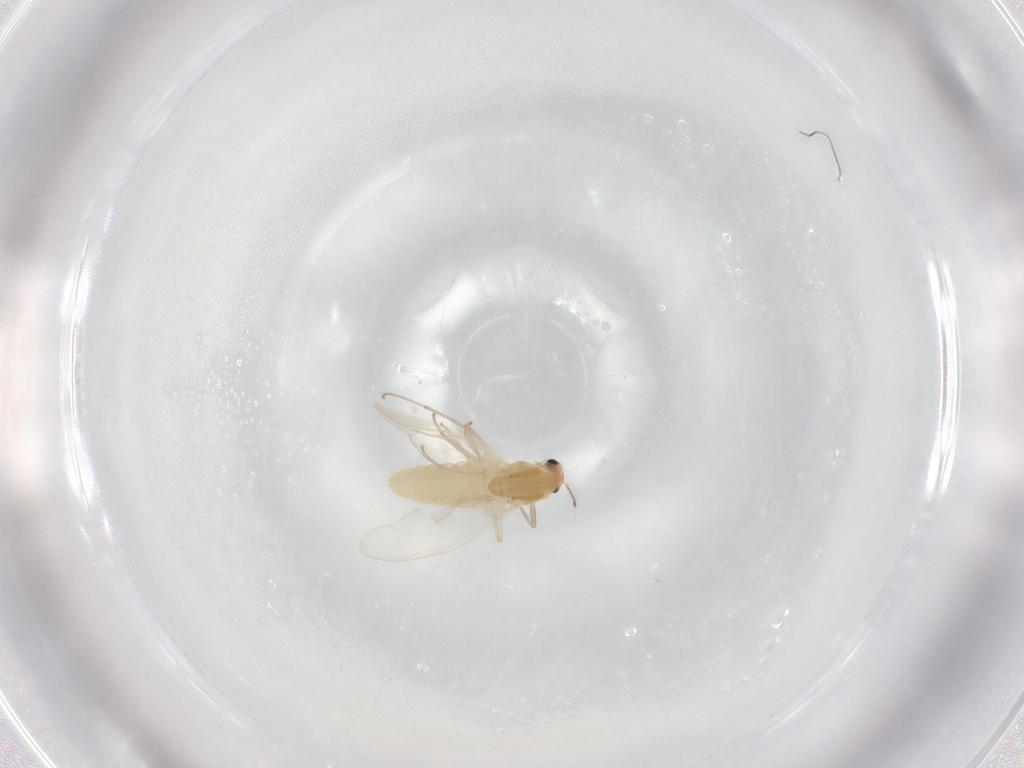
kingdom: Animalia
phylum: Arthropoda
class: Insecta
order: Diptera
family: Chironomidae
